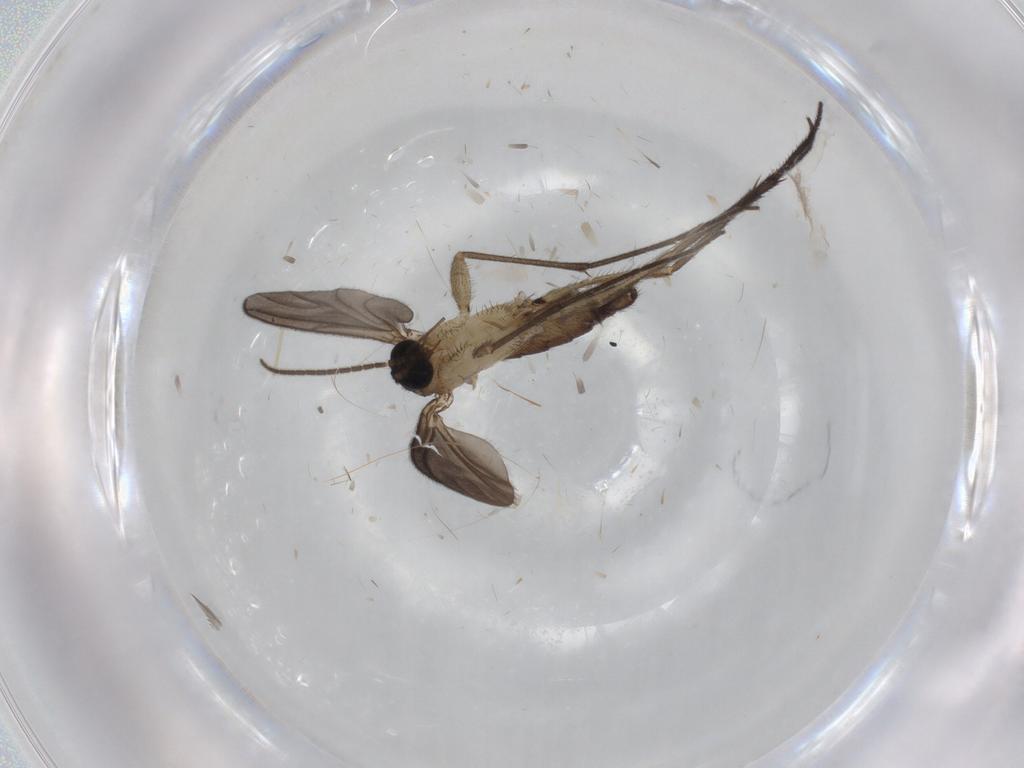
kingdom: Animalia
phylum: Arthropoda
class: Insecta
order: Diptera
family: Sciaridae
